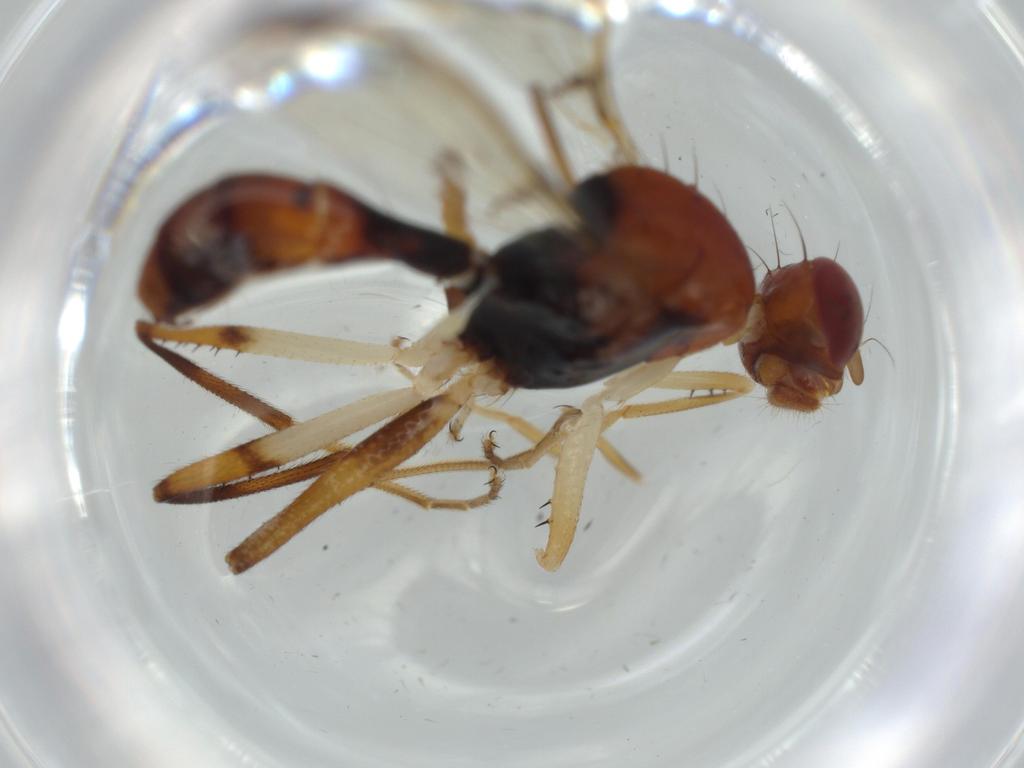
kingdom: Animalia
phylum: Arthropoda
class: Insecta
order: Diptera
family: Richardiidae
